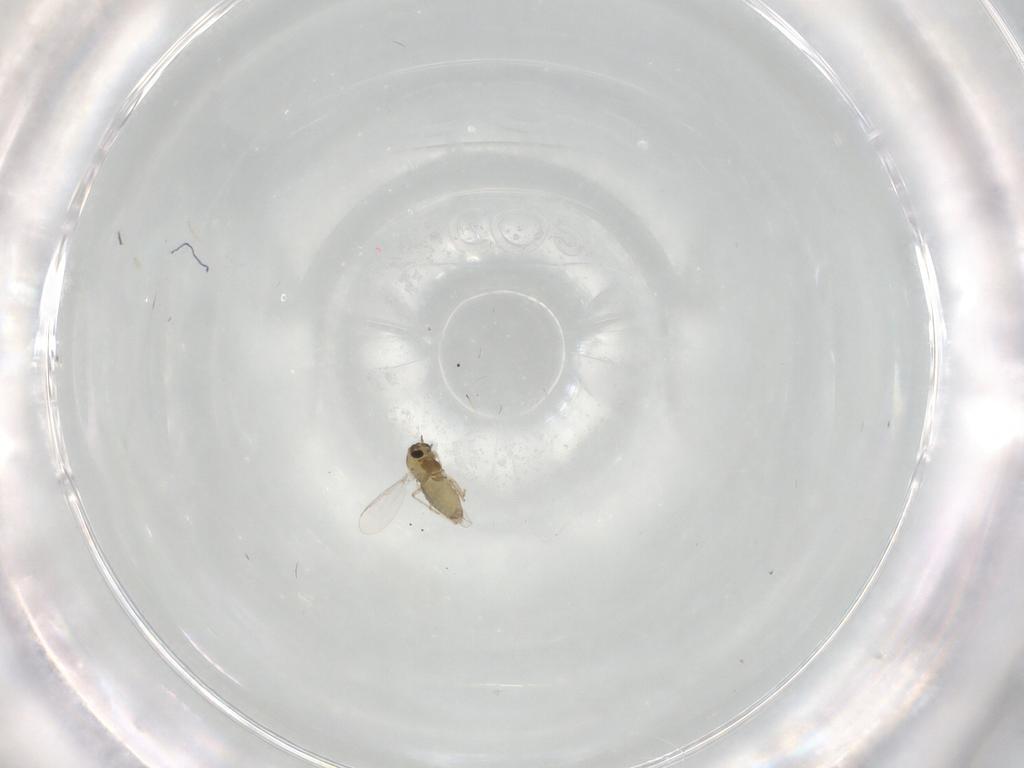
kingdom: Animalia
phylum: Arthropoda
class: Insecta
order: Diptera
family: Chironomidae
